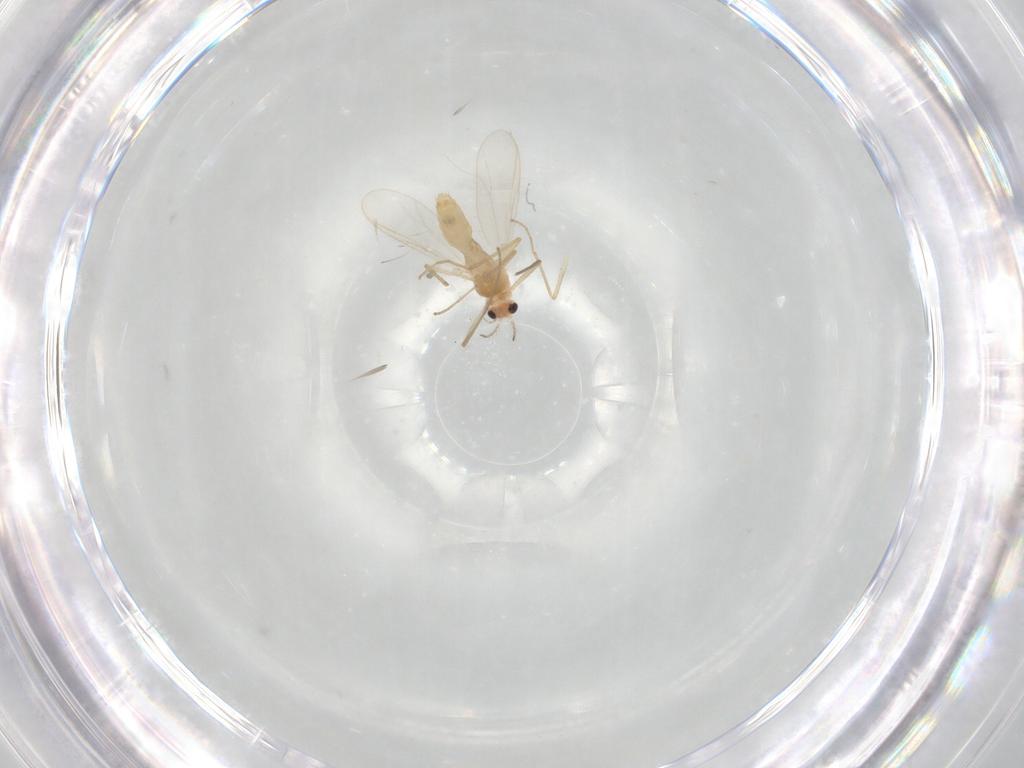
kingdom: Animalia
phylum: Arthropoda
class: Insecta
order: Diptera
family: Chironomidae
